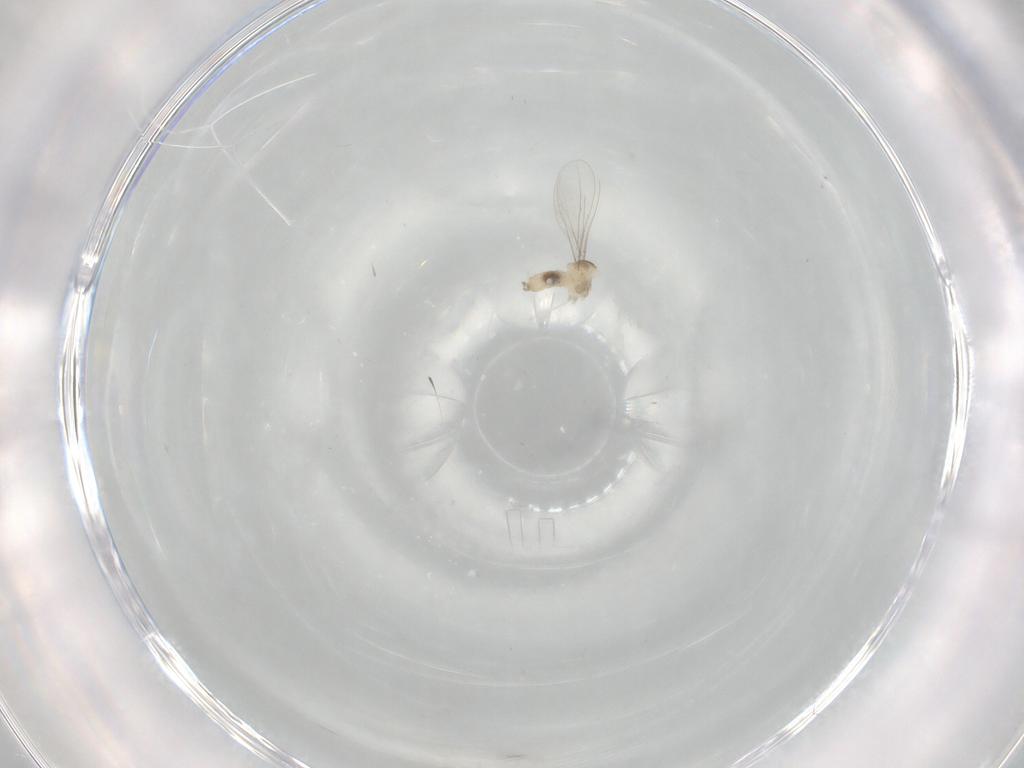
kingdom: Animalia
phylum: Arthropoda
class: Insecta
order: Diptera
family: Cecidomyiidae
